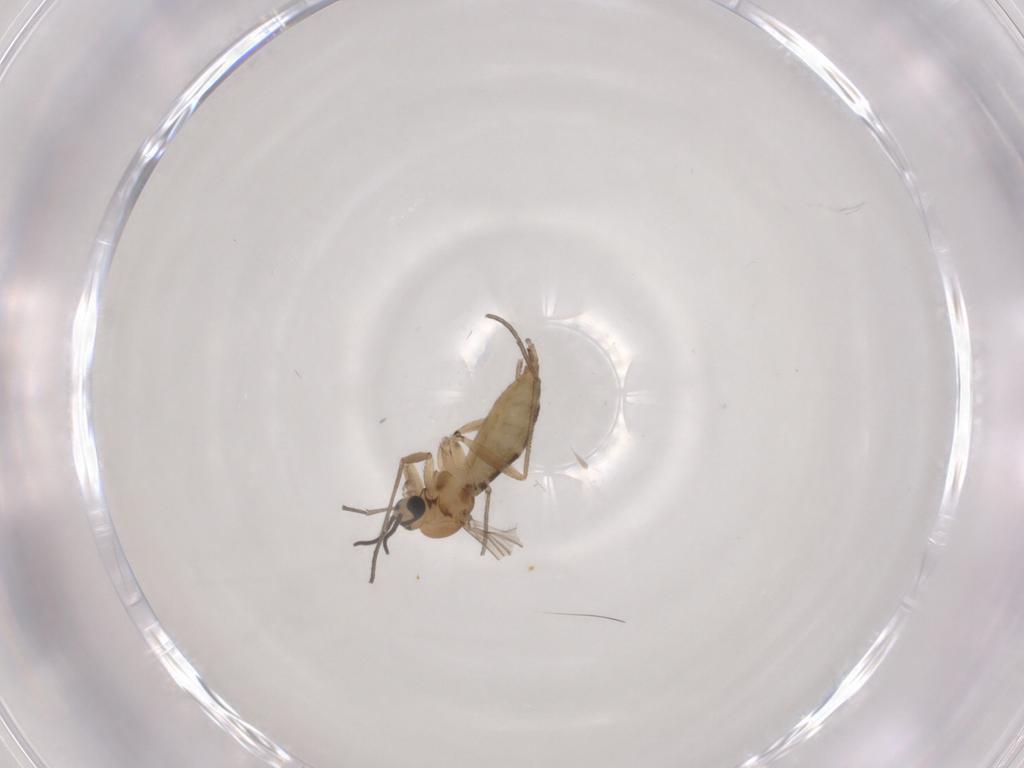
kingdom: Animalia
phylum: Arthropoda
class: Insecta
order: Diptera
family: Sciaridae
